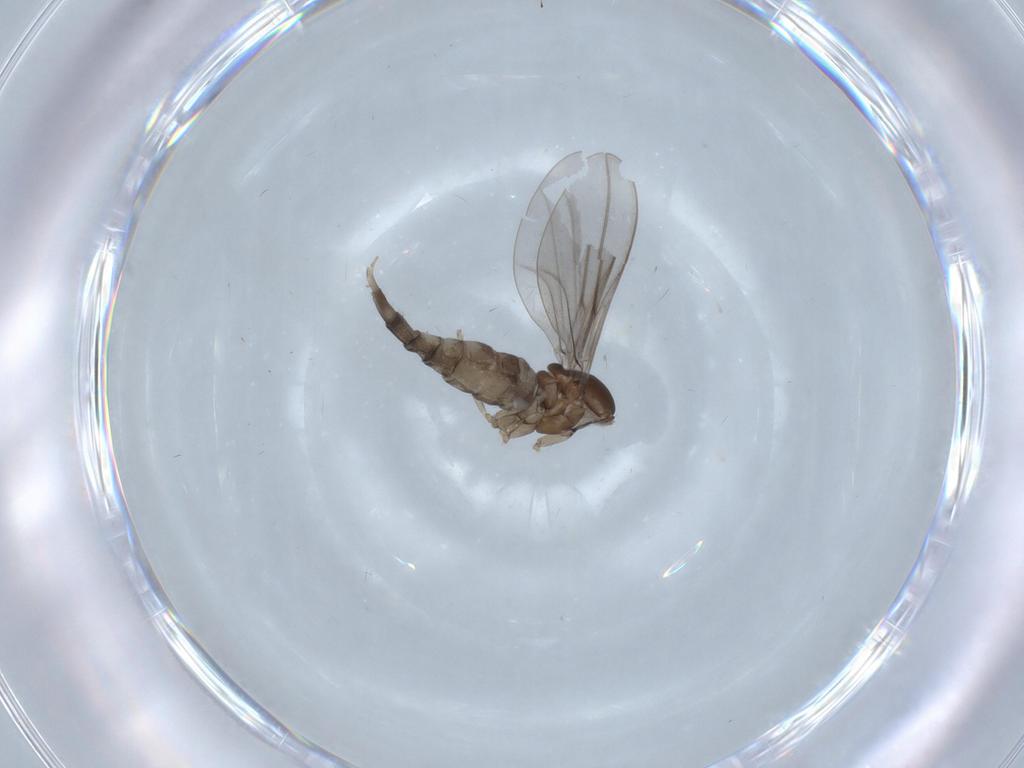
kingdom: Animalia
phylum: Arthropoda
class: Insecta
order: Diptera
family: Cecidomyiidae
